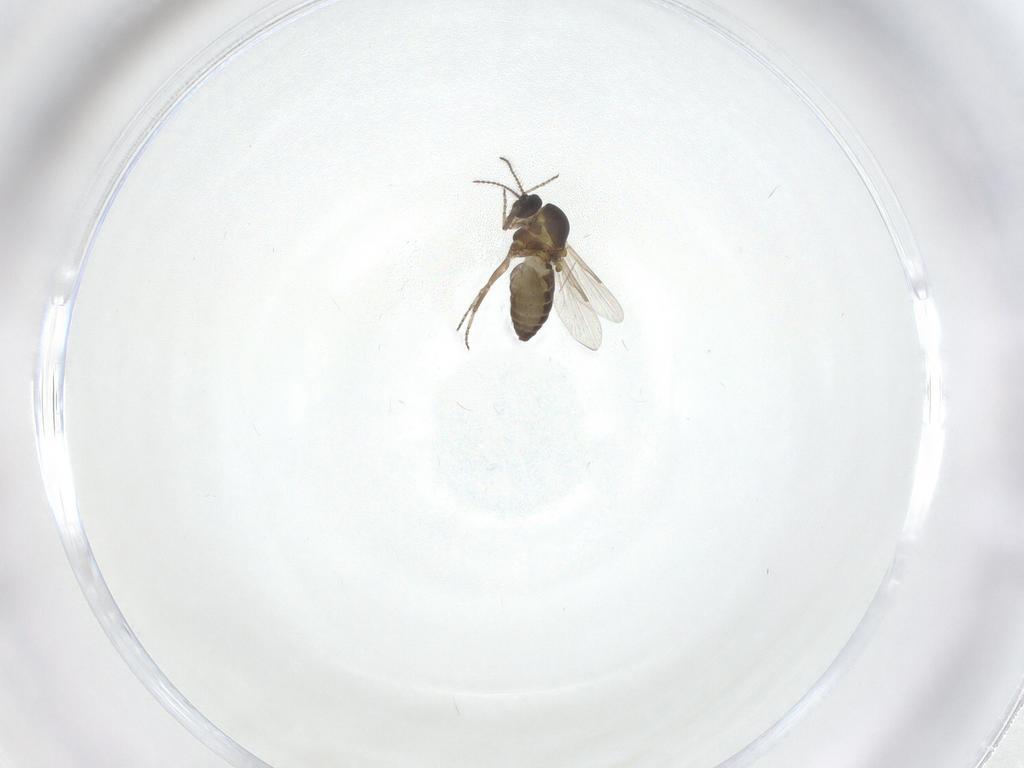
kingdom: Animalia
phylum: Arthropoda
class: Insecta
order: Diptera
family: Ceratopogonidae
